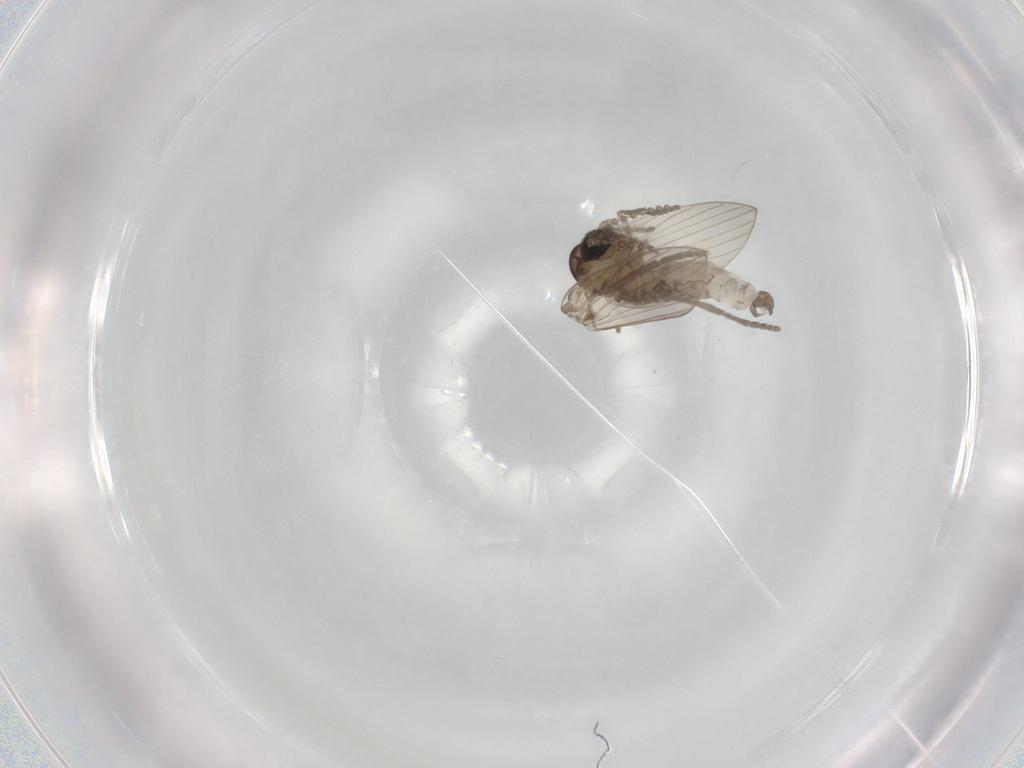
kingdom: Animalia
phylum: Arthropoda
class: Insecta
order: Diptera
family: Psychodidae
